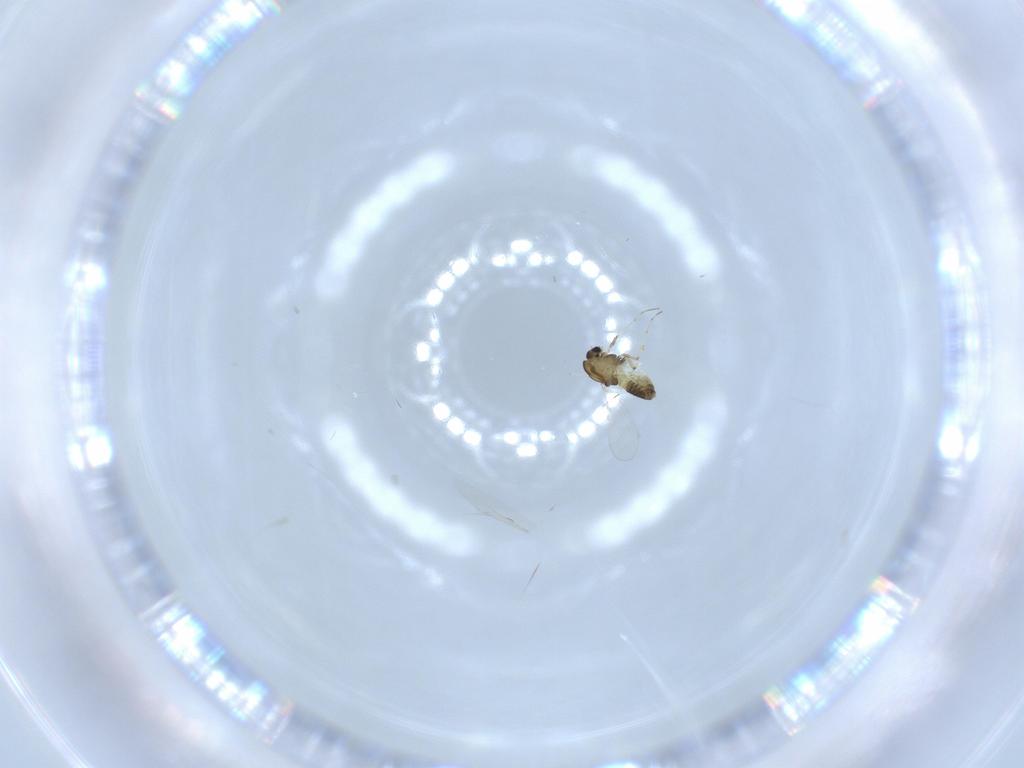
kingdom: Animalia
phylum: Arthropoda
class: Insecta
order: Diptera
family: Chironomidae
